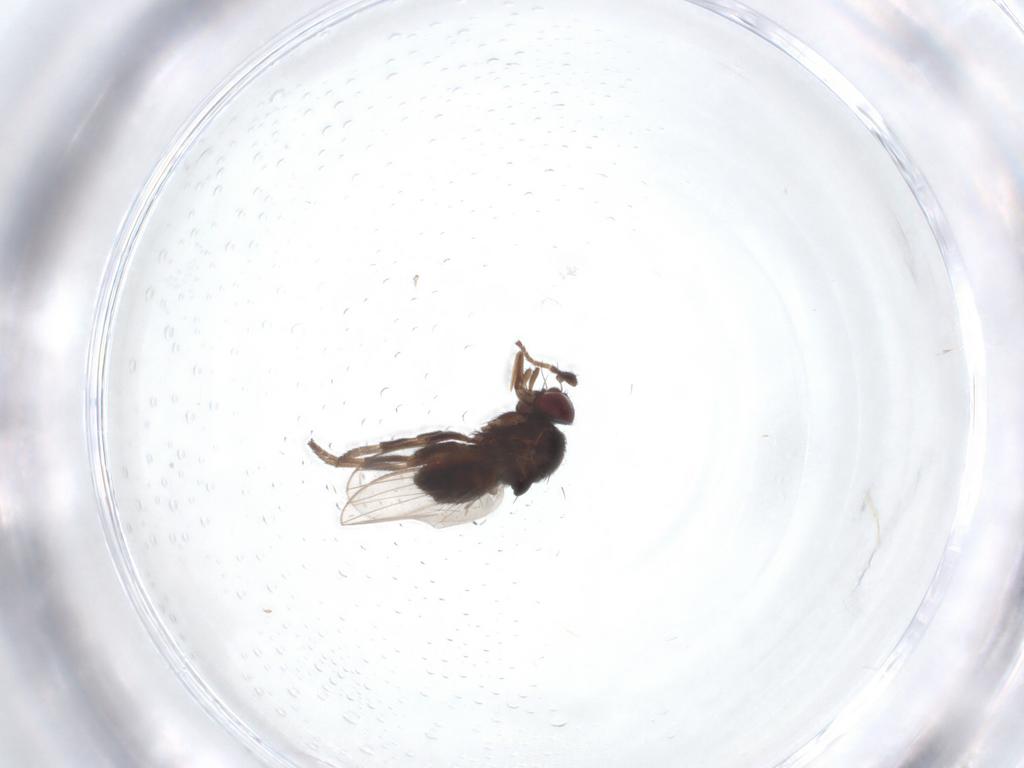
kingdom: Animalia
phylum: Arthropoda
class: Insecta
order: Diptera
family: Milichiidae
